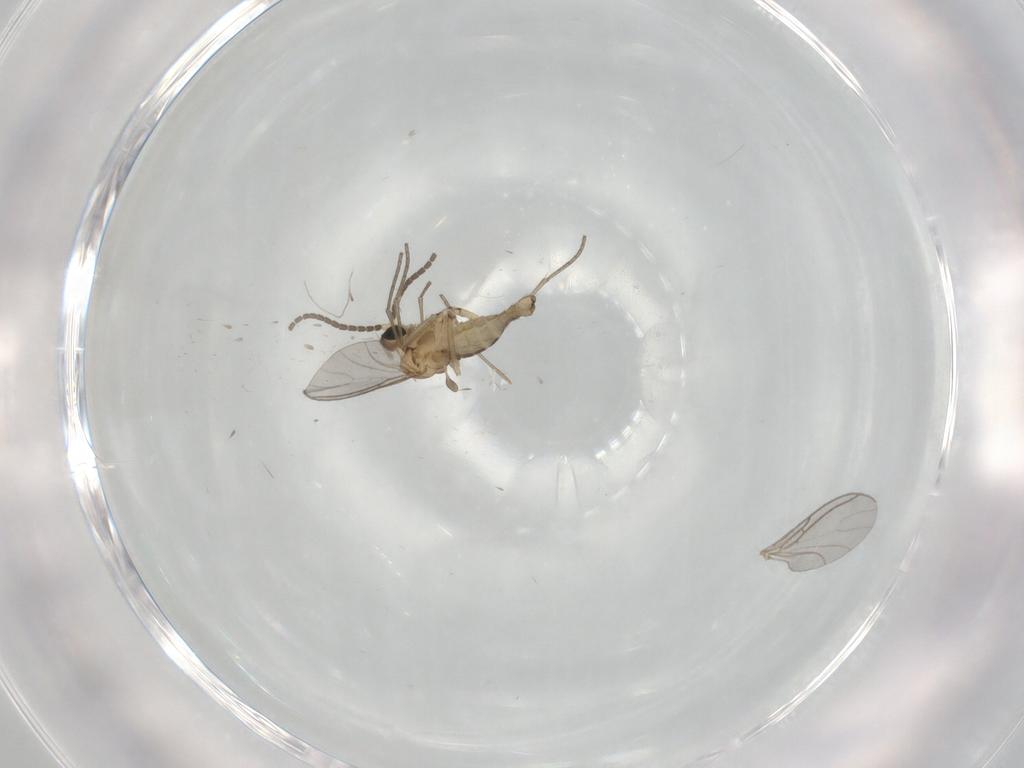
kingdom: Animalia
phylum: Arthropoda
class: Insecta
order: Diptera
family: Sciaridae
